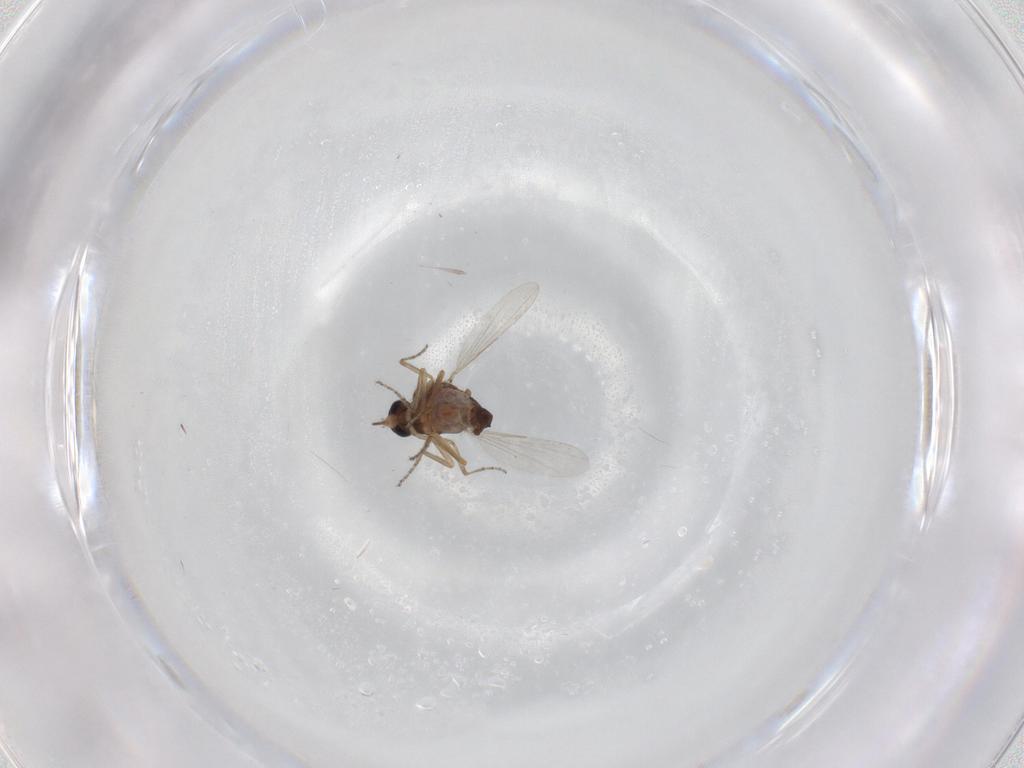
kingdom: Animalia
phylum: Arthropoda
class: Insecta
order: Diptera
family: Ceratopogonidae
